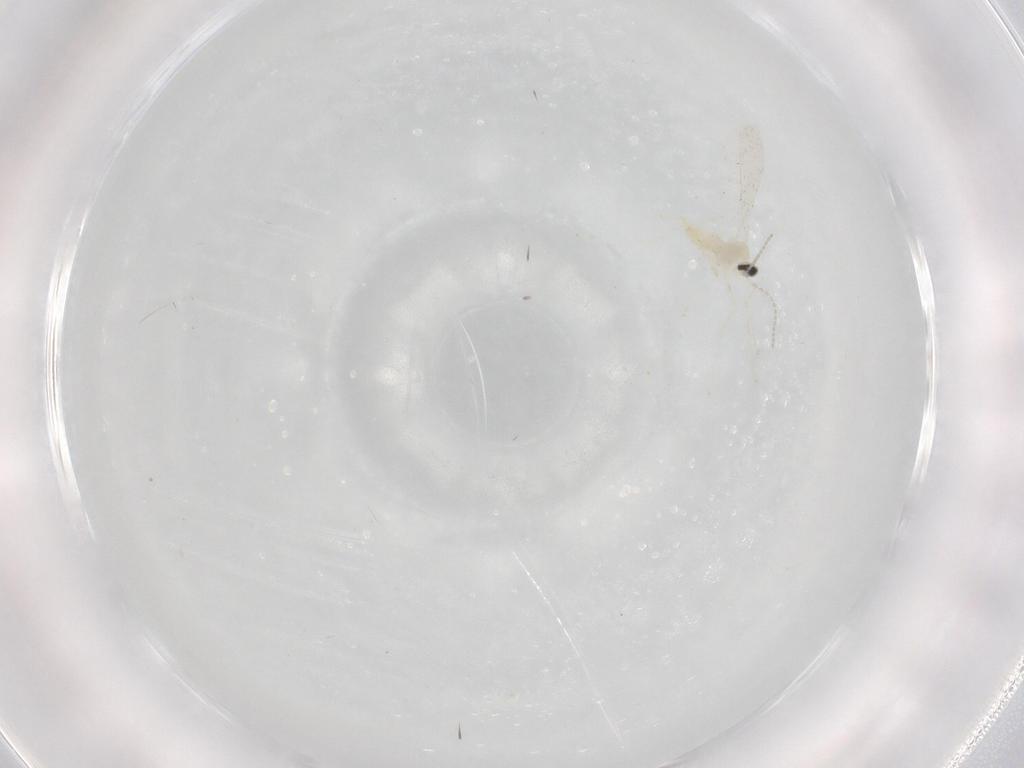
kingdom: Animalia
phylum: Arthropoda
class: Insecta
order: Diptera
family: Cecidomyiidae
